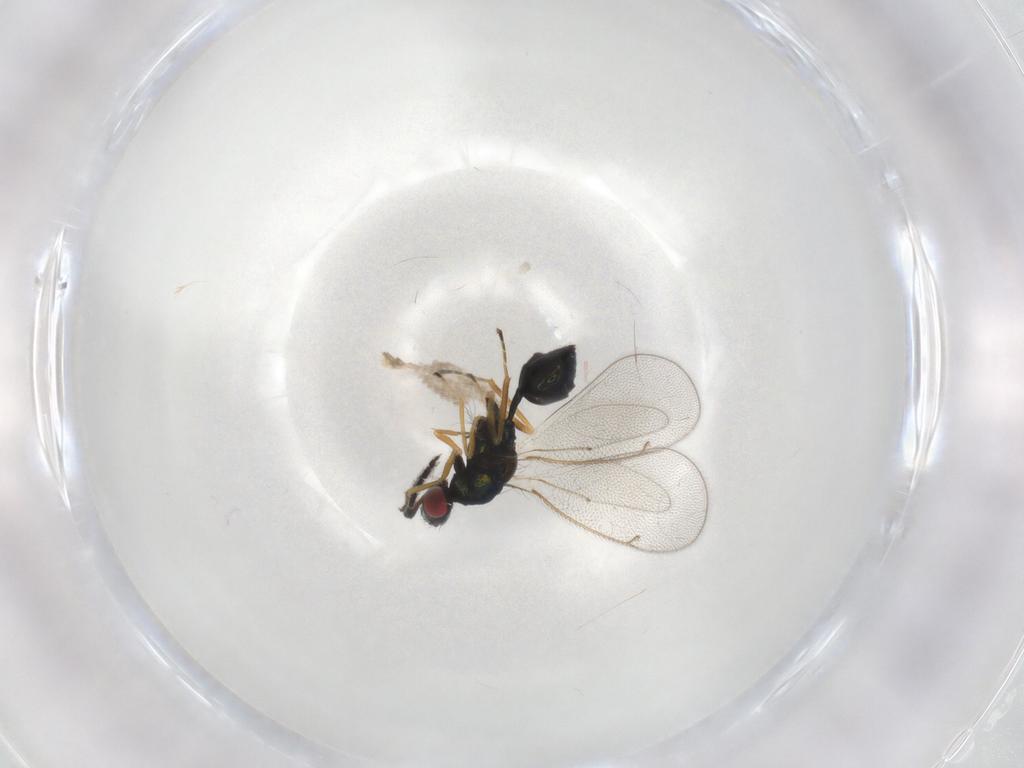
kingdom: Animalia
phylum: Arthropoda
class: Insecta
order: Hymenoptera
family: Eulophidae
